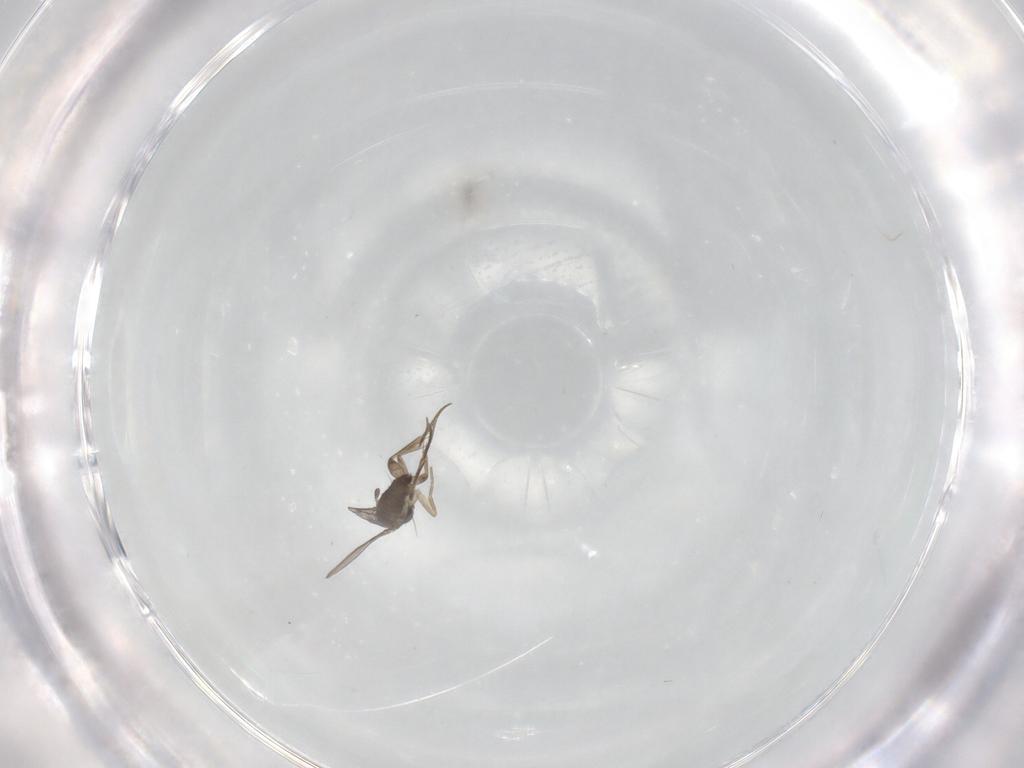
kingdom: Animalia
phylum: Arthropoda
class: Insecta
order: Diptera
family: Phoridae
